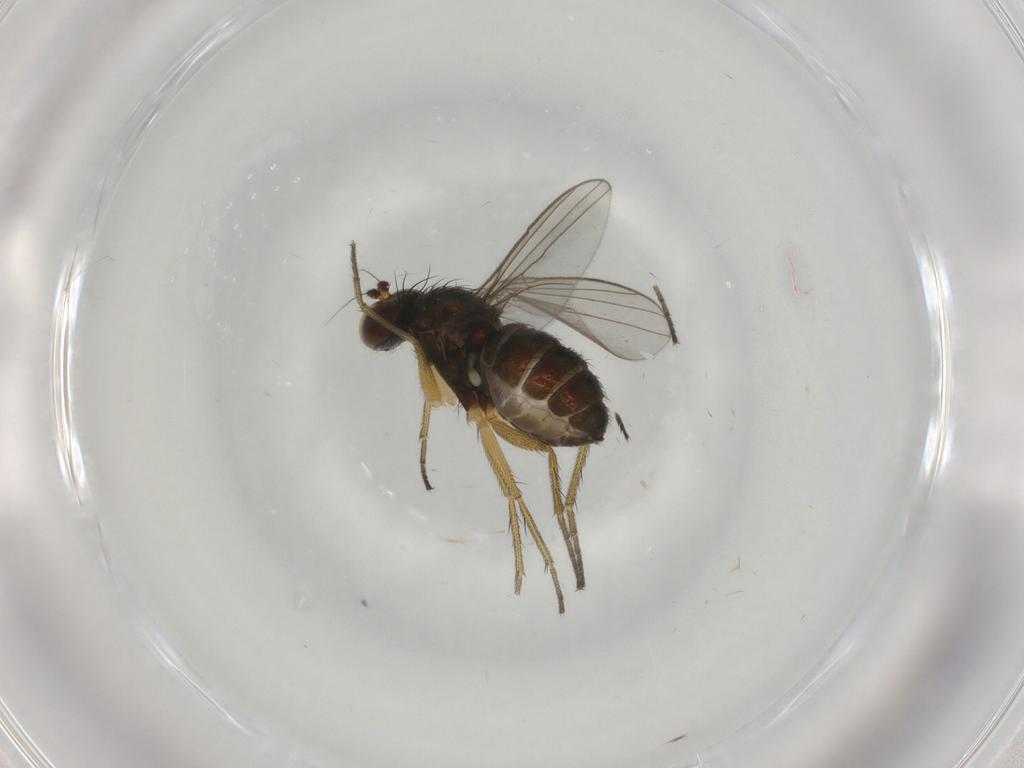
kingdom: Animalia
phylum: Arthropoda
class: Insecta
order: Diptera
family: Dolichopodidae
